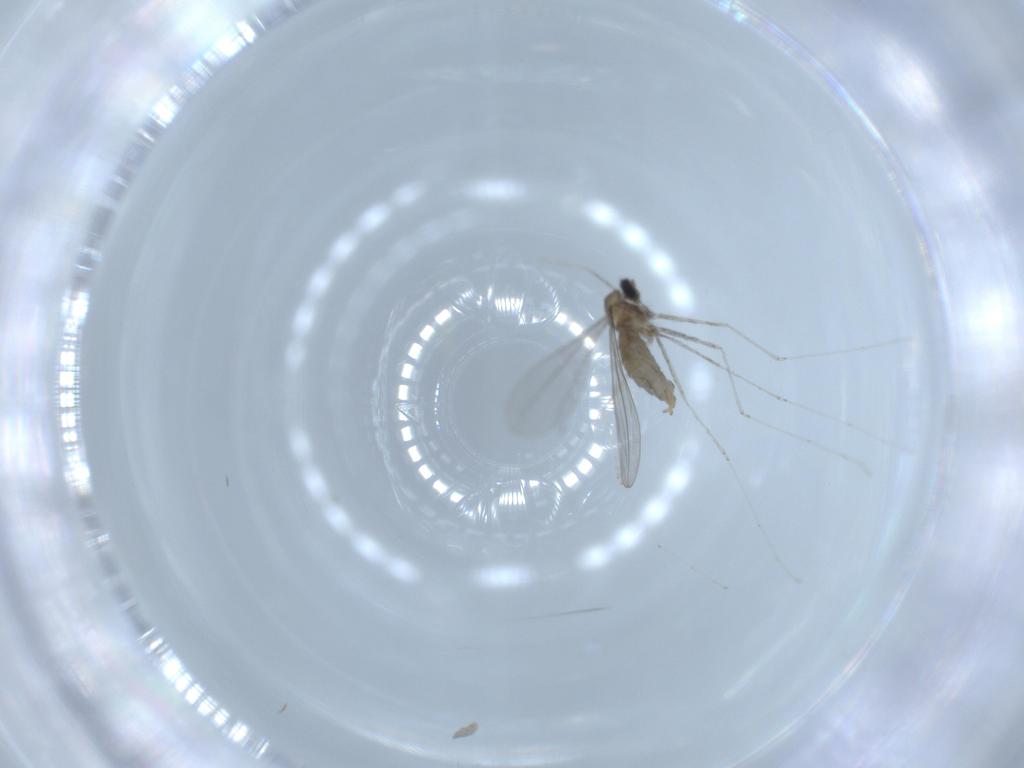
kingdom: Animalia
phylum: Arthropoda
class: Insecta
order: Diptera
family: Cecidomyiidae
